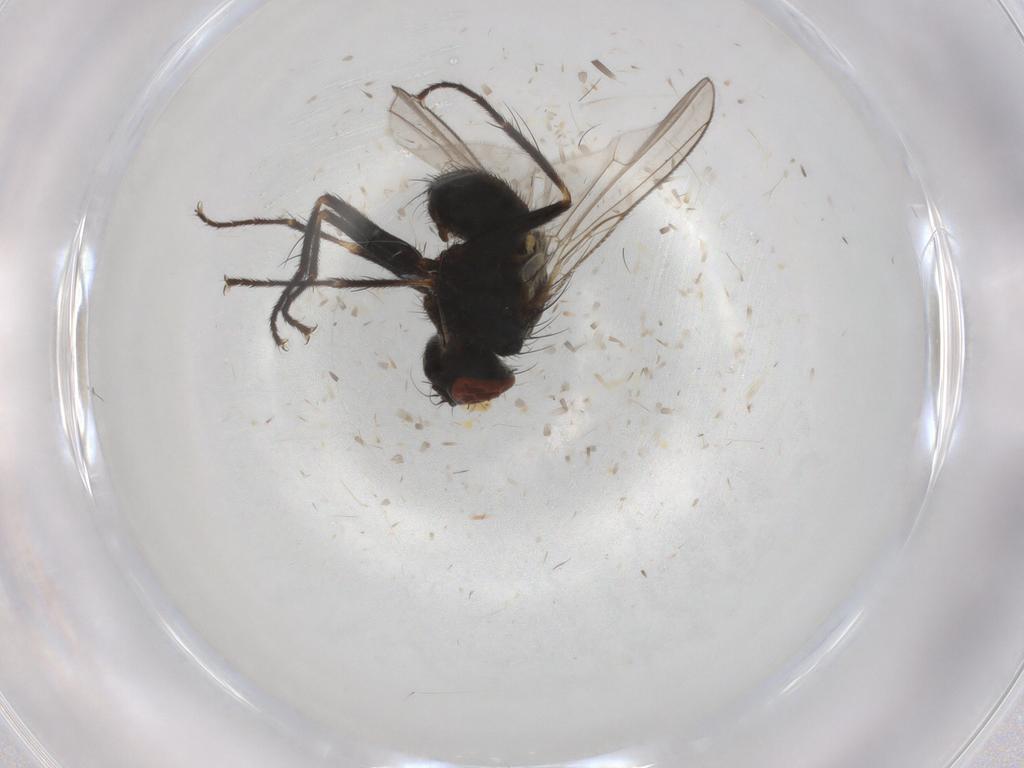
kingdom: Animalia
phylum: Arthropoda
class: Insecta
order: Diptera
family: Muscidae
